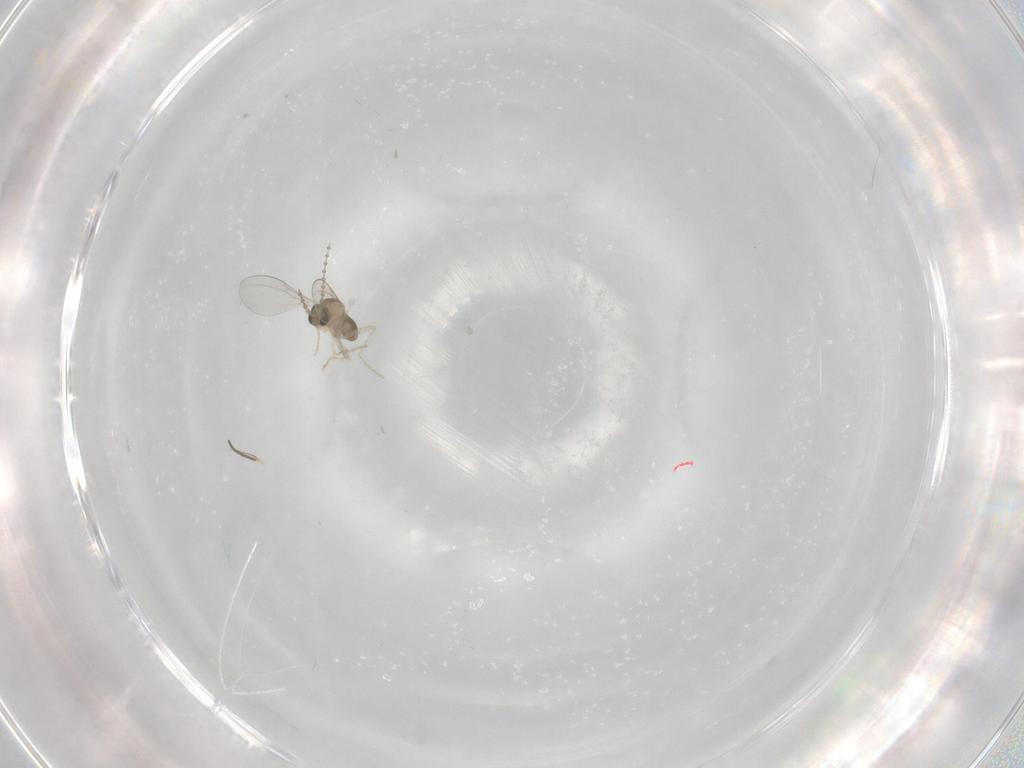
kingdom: Animalia
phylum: Arthropoda
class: Insecta
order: Diptera
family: Cecidomyiidae
